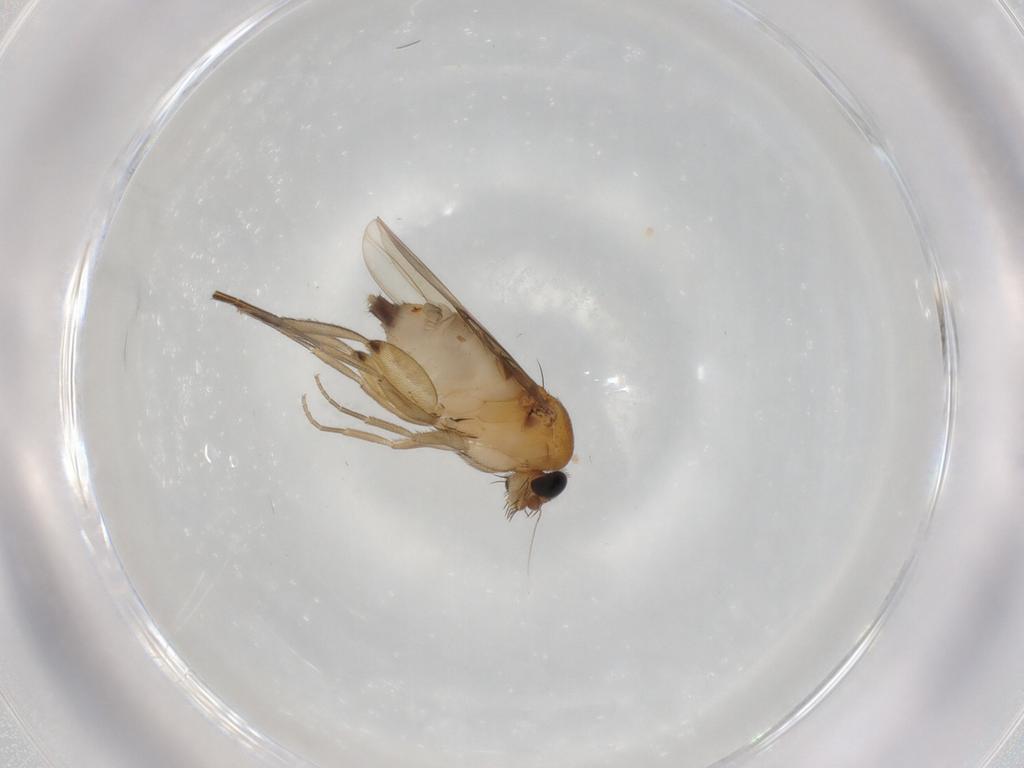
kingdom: Animalia
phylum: Arthropoda
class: Insecta
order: Diptera
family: Phoridae
